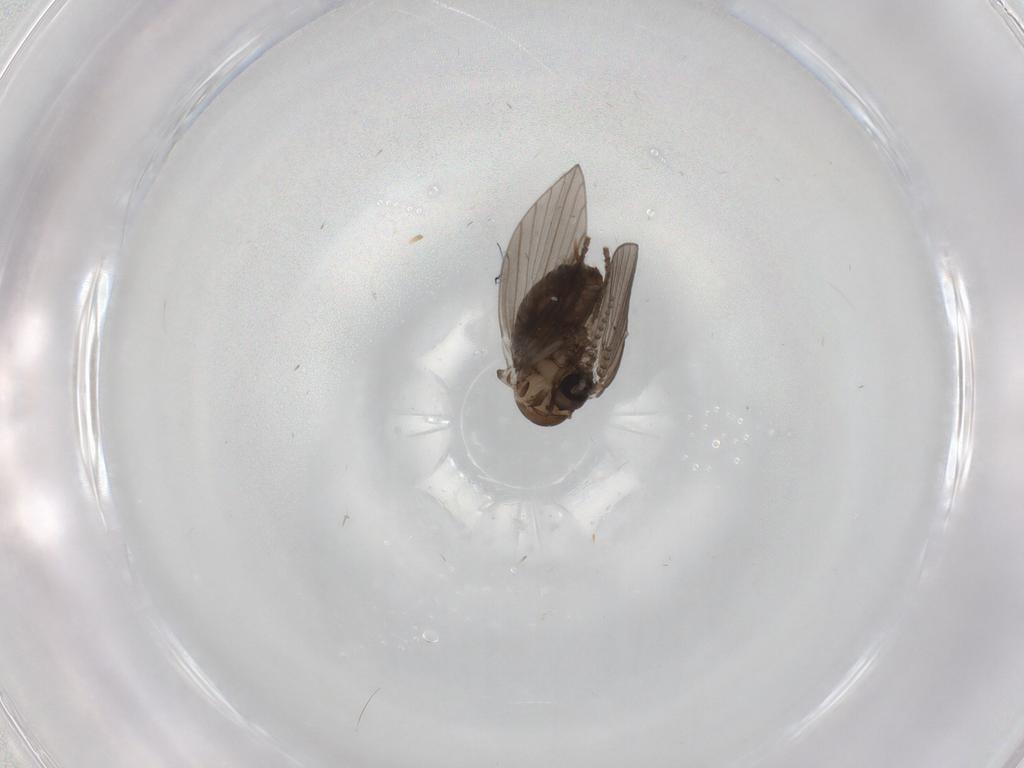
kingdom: Animalia
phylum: Arthropoda
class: Insecta
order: Diptera
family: Psychodidae
